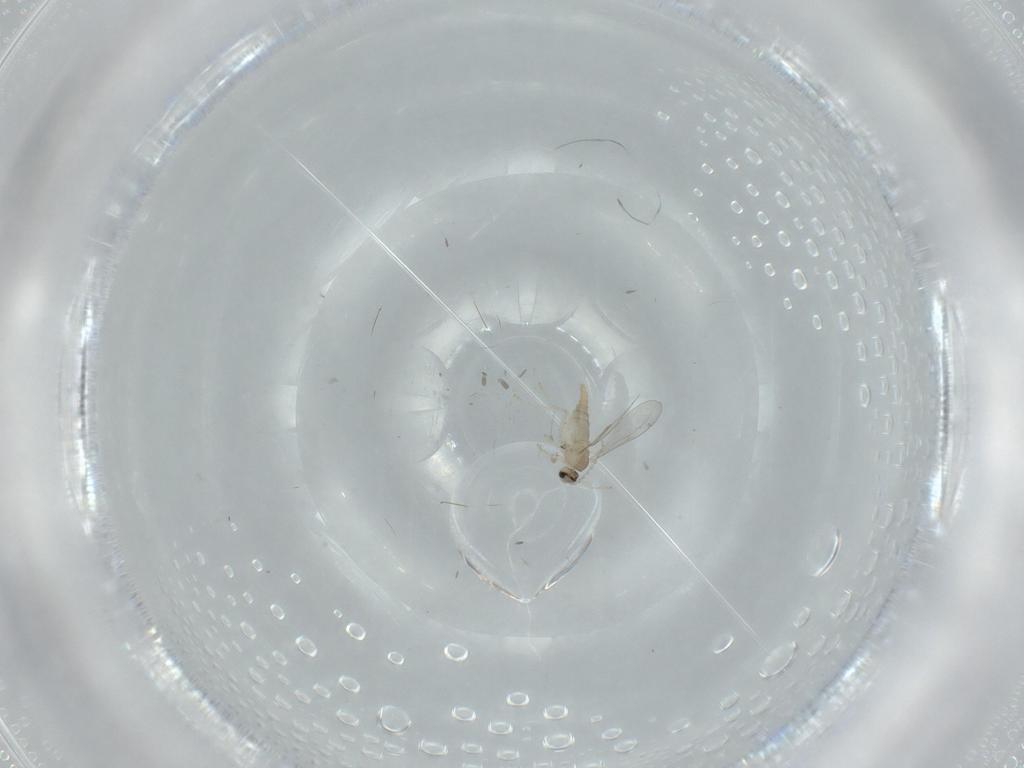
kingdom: Animalia
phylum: Arthropoda
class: Insecta
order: Diptera
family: Cecidomyiidae
